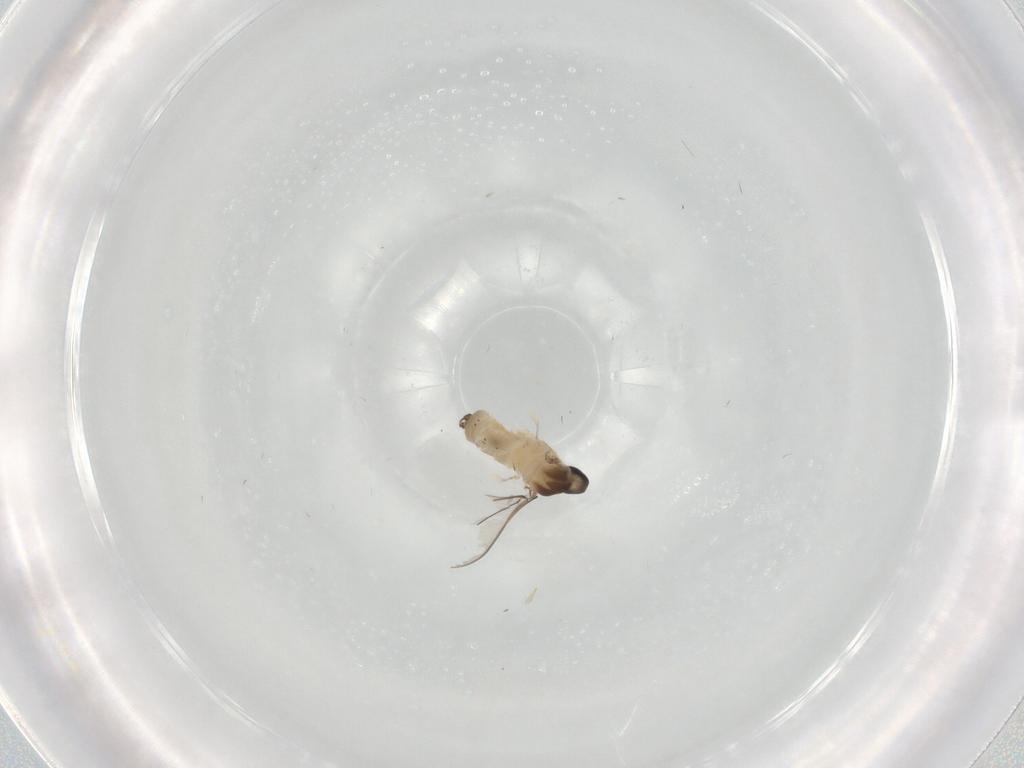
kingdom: Animalia
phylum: Arthropoda
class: Insecta
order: Diptera
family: Cecidomyiidae
